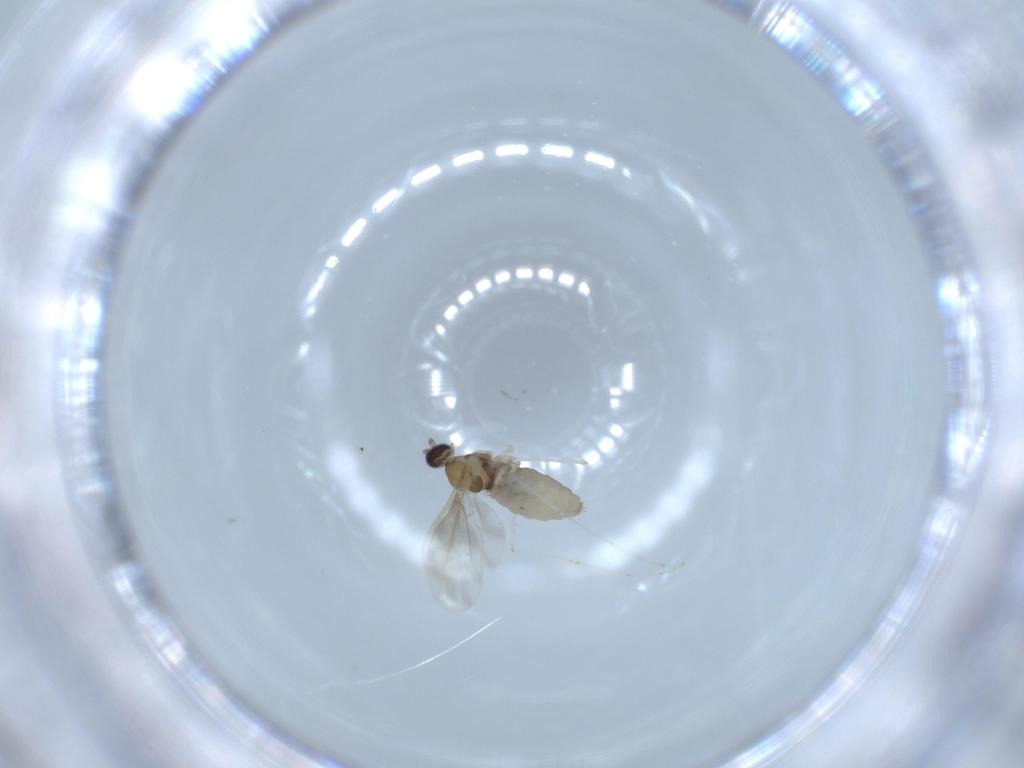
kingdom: Animalia
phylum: Arthropoda
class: Insecta
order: Diptera
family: Cecidomyiidae
